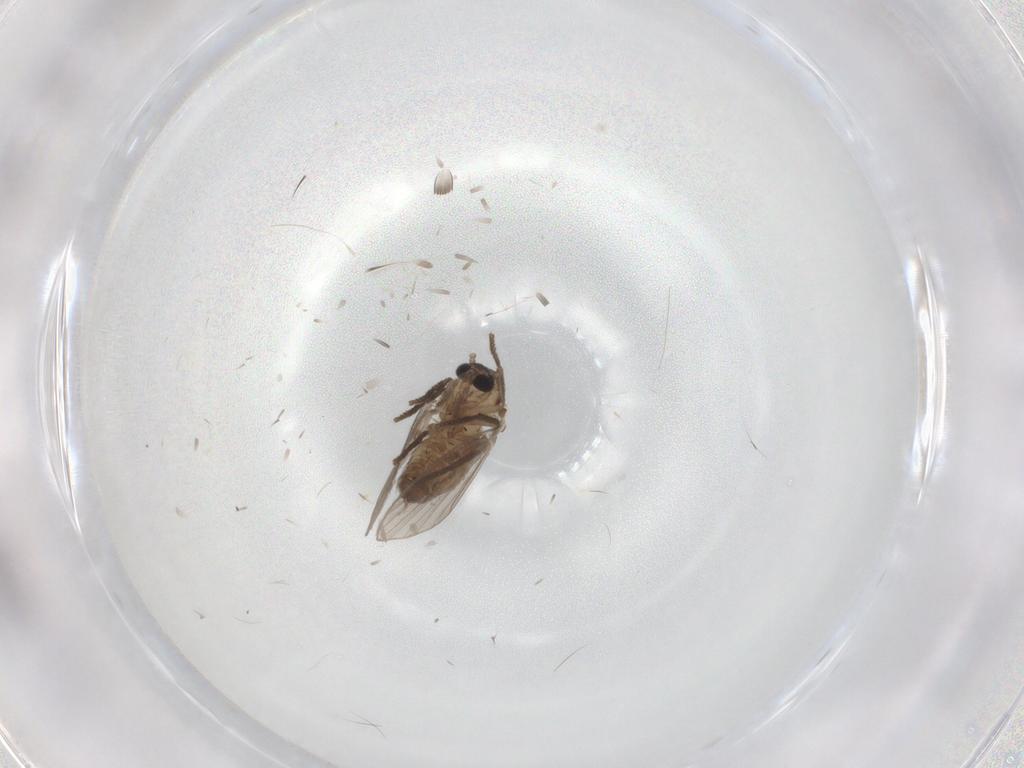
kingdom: Animalia
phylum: Arthropoda
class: Insecta
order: Diptera
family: Psychodidae
